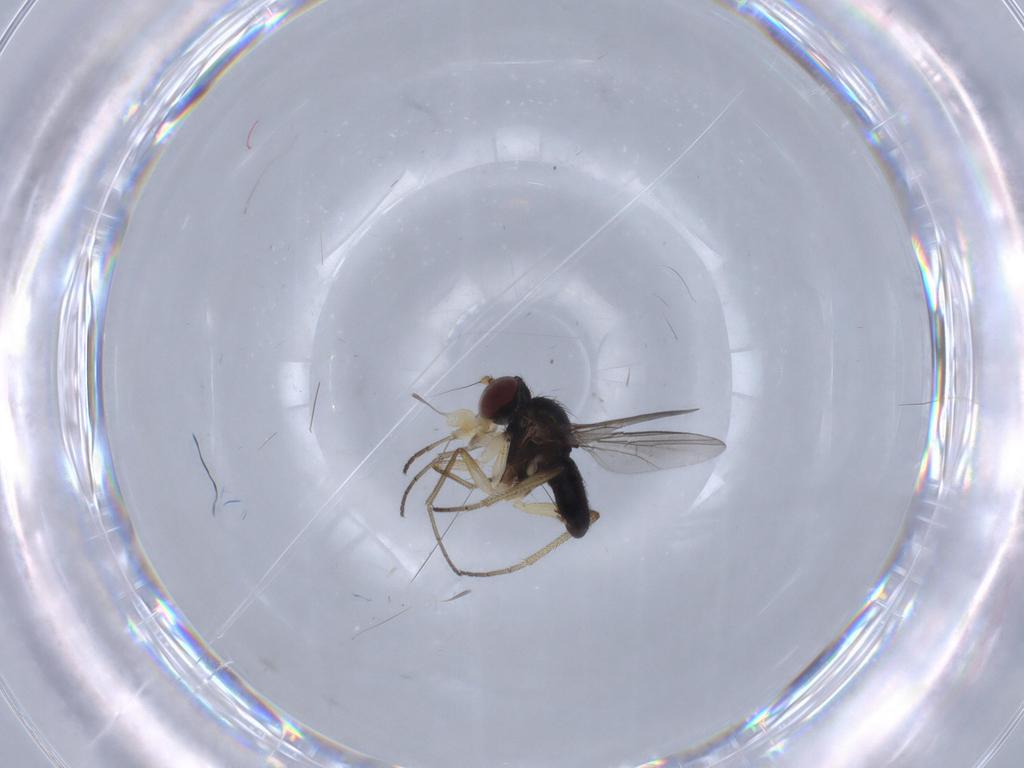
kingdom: Animalia
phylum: Arthropoda
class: Insecta
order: Diptera
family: Dolichopodidae
